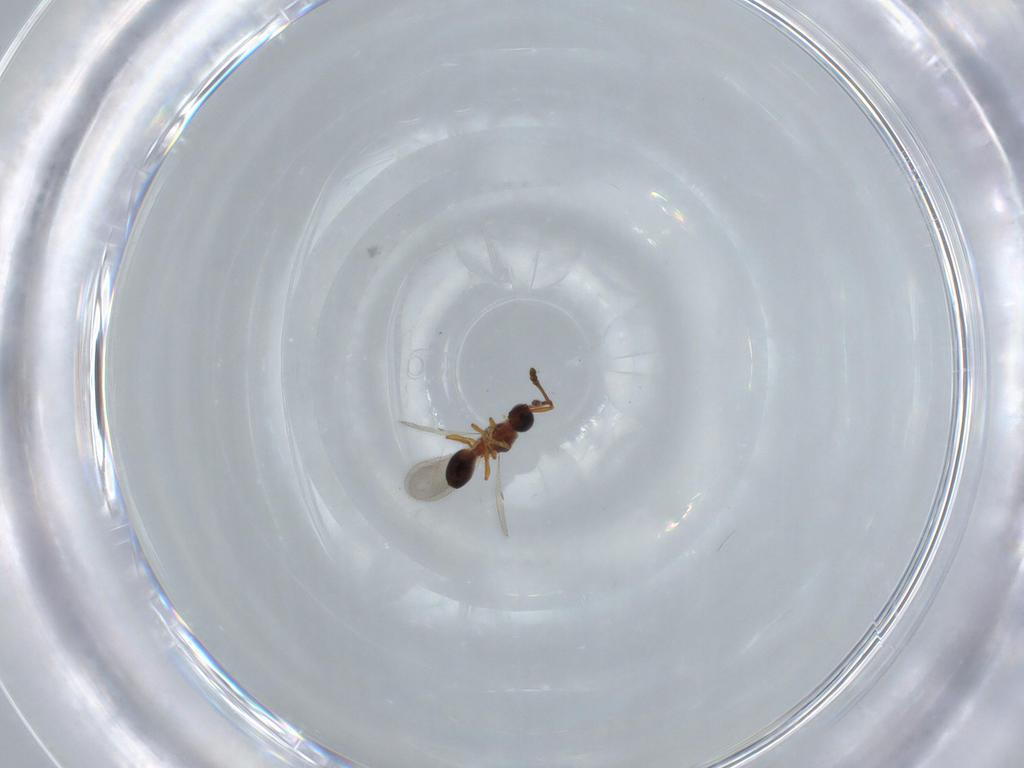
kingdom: Animalia
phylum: Arthropoda
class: Insecta
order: Hymenoptera
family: Diapriidae
